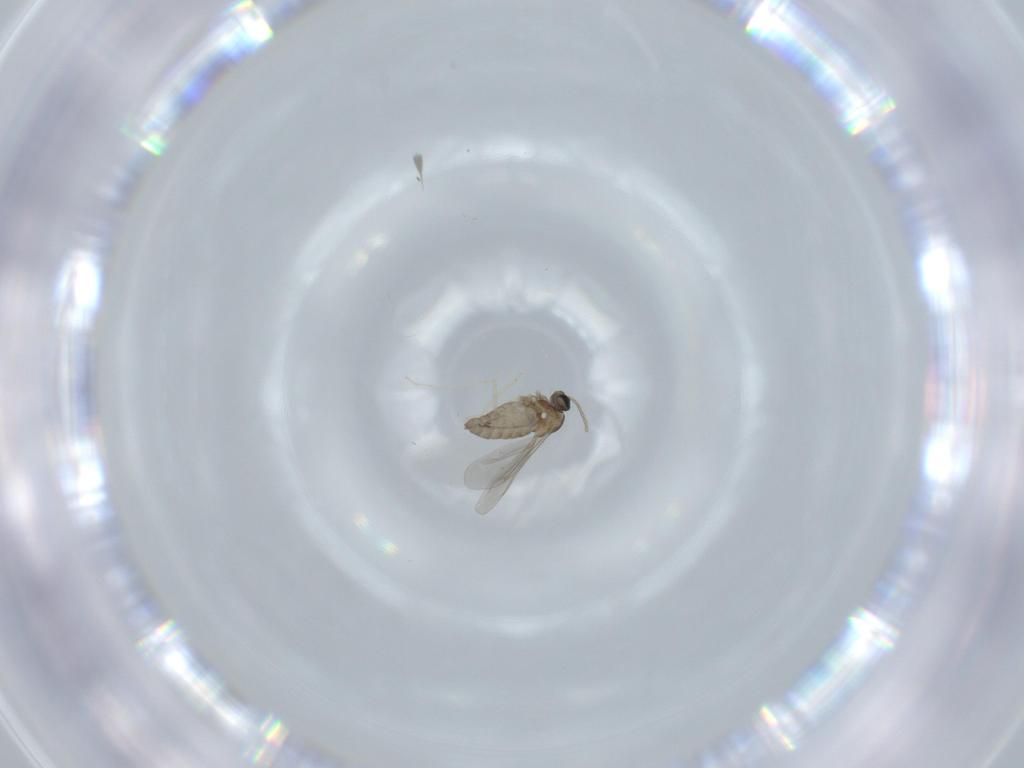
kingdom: Animalia
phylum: Arthropoda
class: Insecta
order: Diptera
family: Cecidomyiidae
